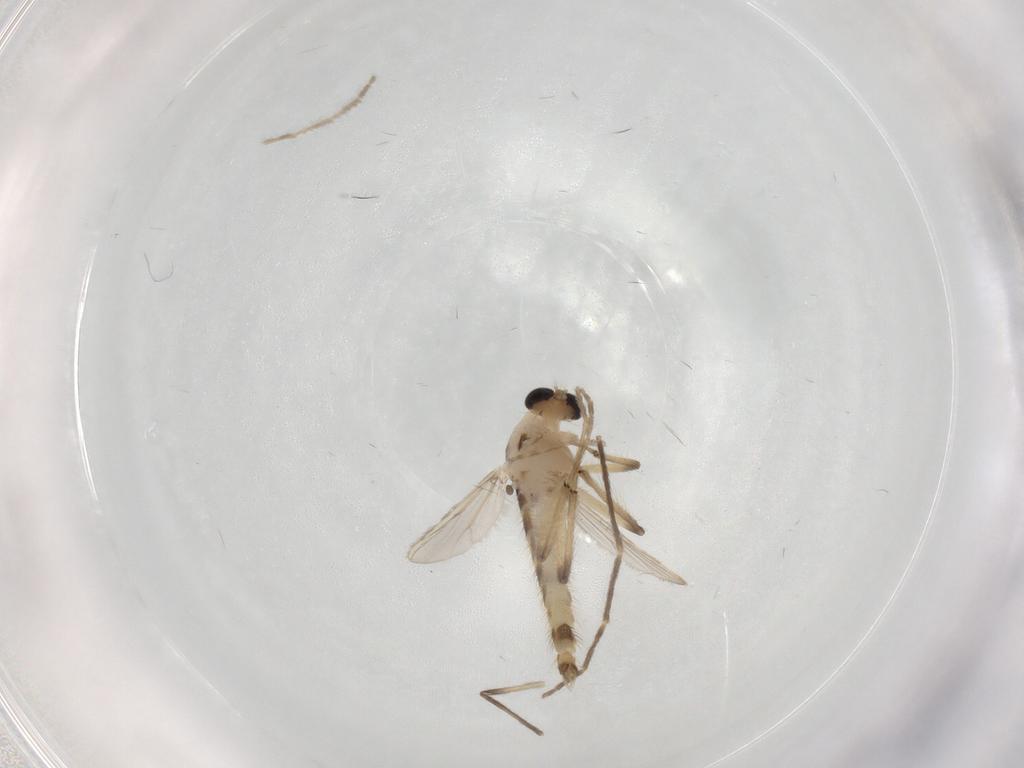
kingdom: Animalia
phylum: Arthropoda
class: Insecta
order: Diptera
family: Chironomidae
